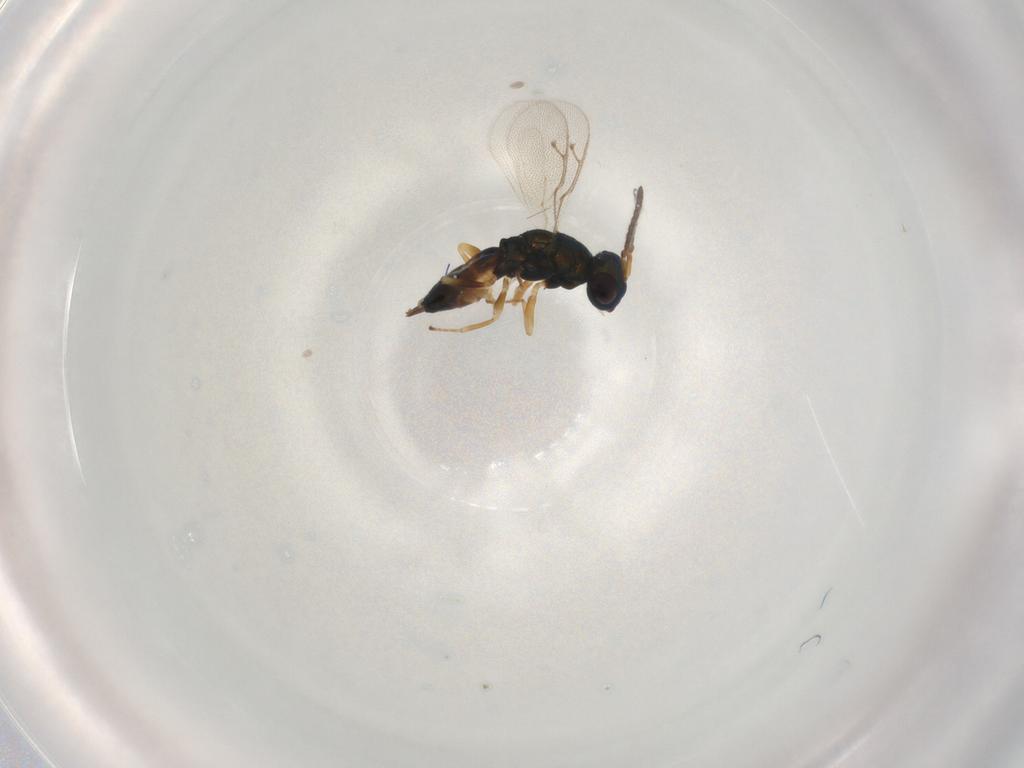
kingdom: Animalia
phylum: Arthropoda
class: Insecta
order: Hymenoptera
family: Pteromalidae
